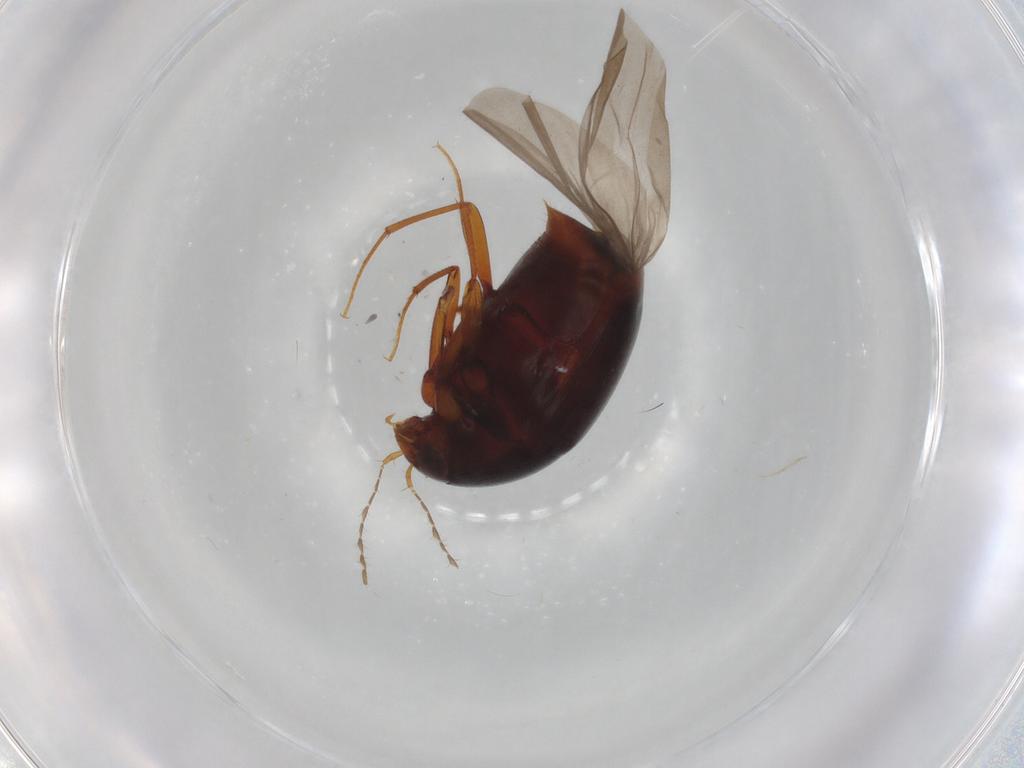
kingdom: Animalia
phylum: Arthropoda
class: Insecta
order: Coleoptera
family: Staphylinidae
